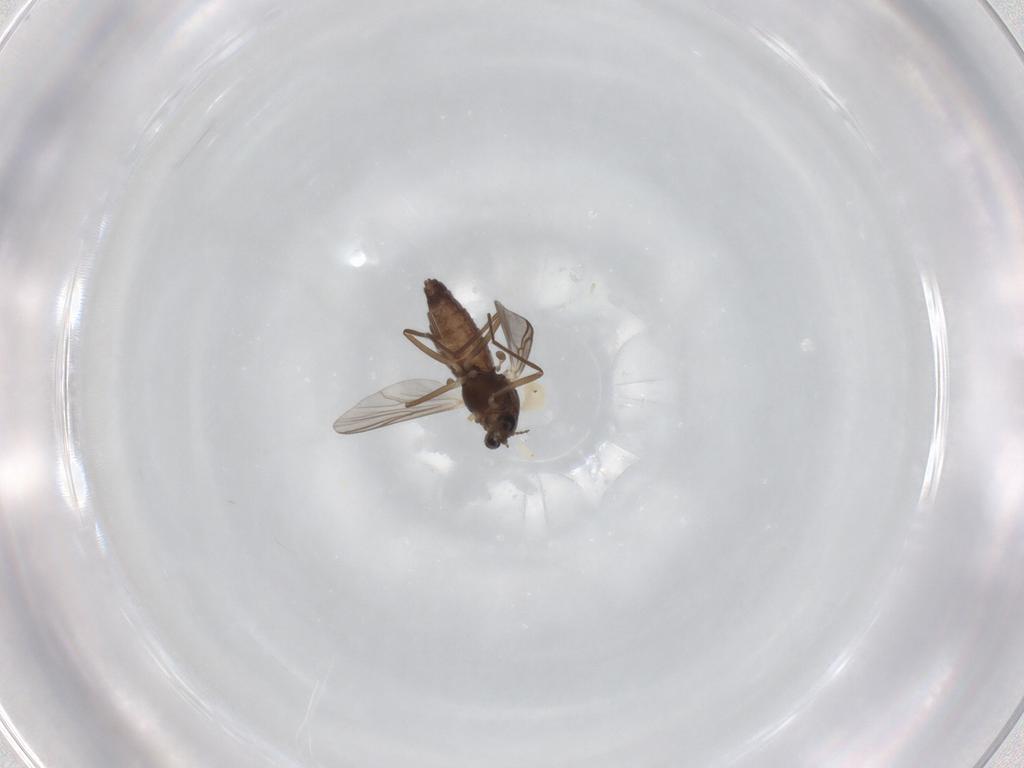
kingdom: Animalia
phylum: Arthropoda
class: Insecta
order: Diptera
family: Chironomidae
